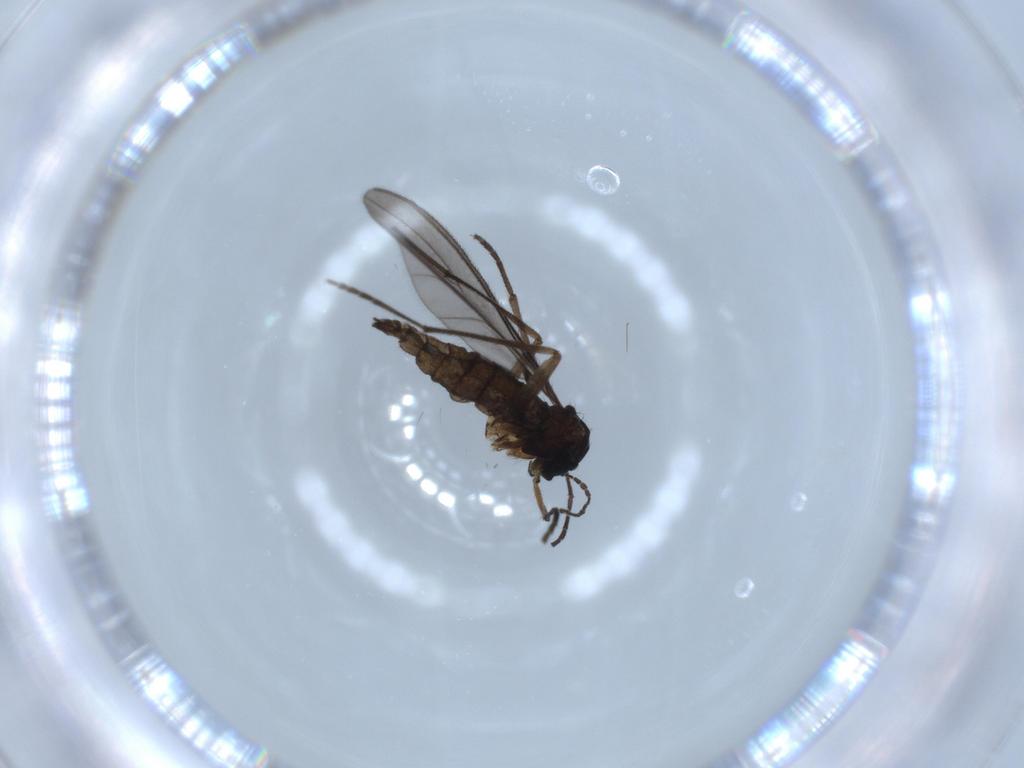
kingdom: Animalia
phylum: Arthropoda
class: Insecta
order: Diptera
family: Sciaridae
